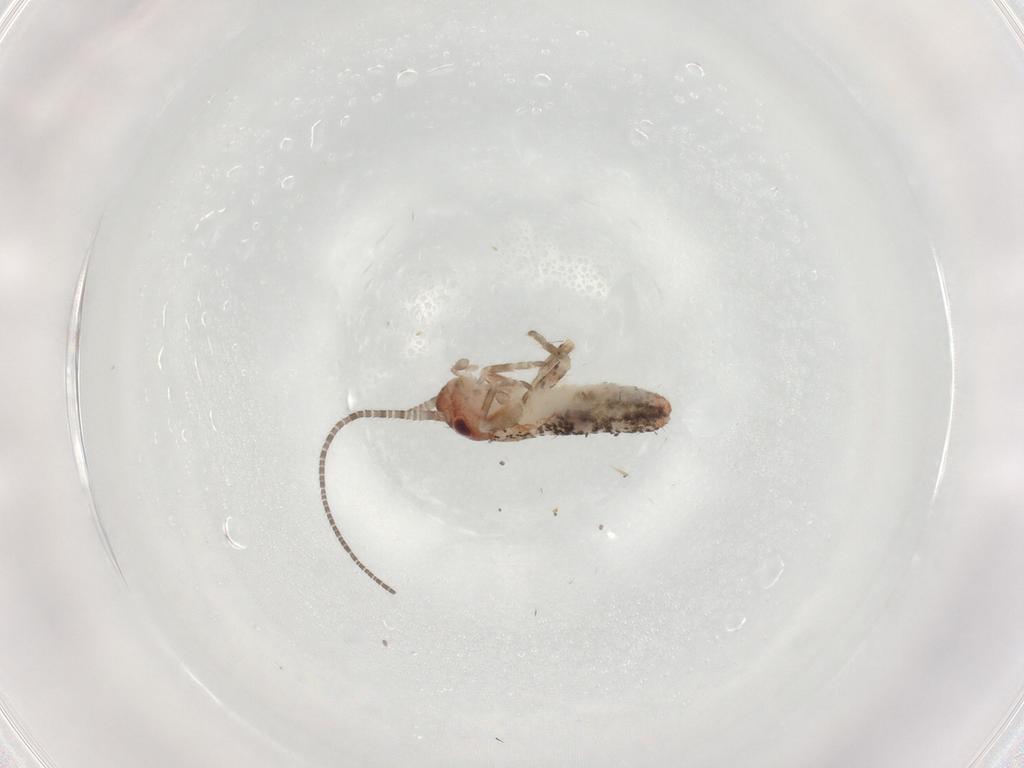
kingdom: Animalia
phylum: Arthropoda
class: Insecta
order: Orthoptera
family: Mogoplistidae
